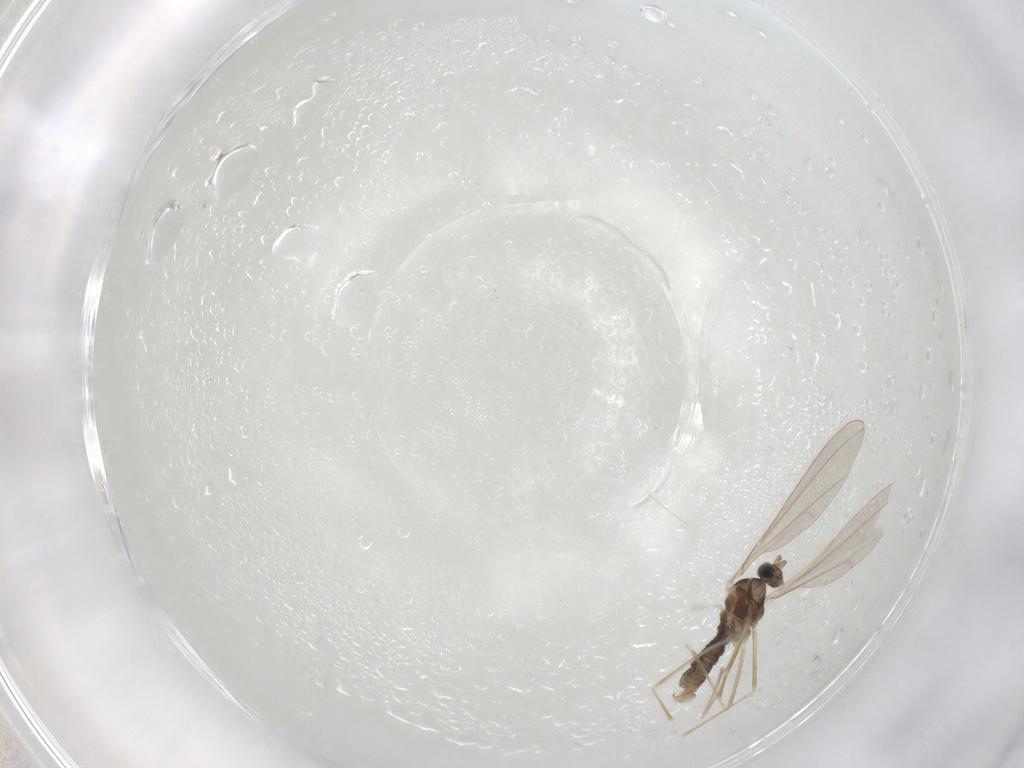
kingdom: Animalia
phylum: Arthropoda
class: Insecta
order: Diptera
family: Cecidomyiidae
